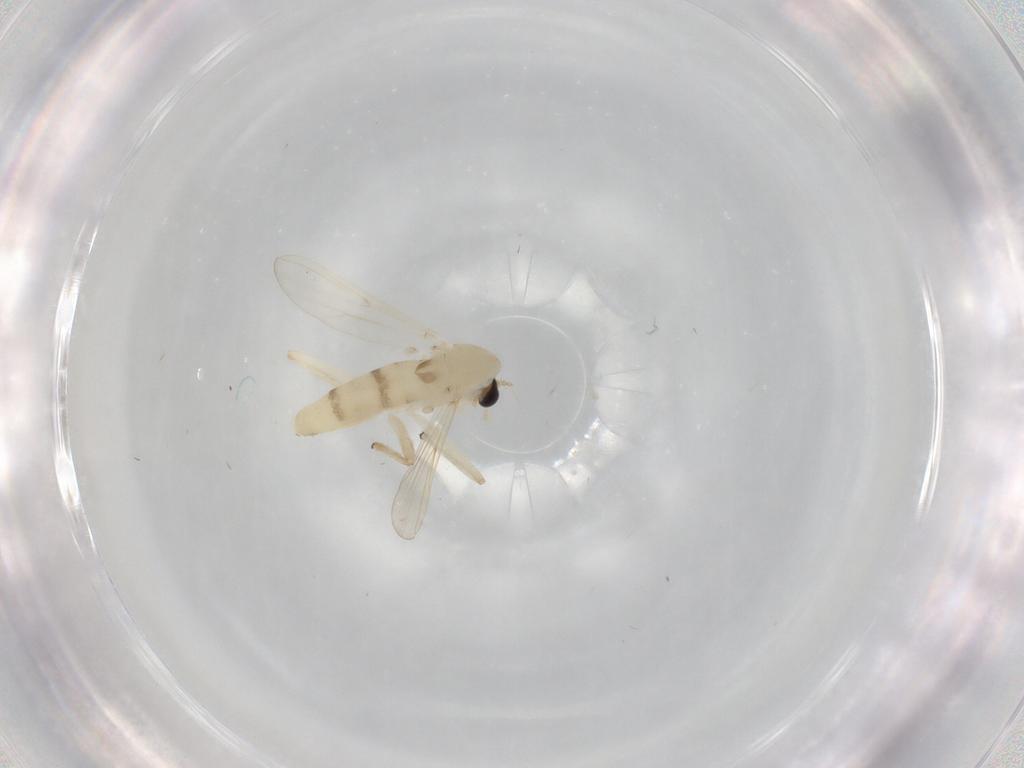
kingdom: Animalia
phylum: Arthropoda
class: Insecta
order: Diptera
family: Chironomidae
